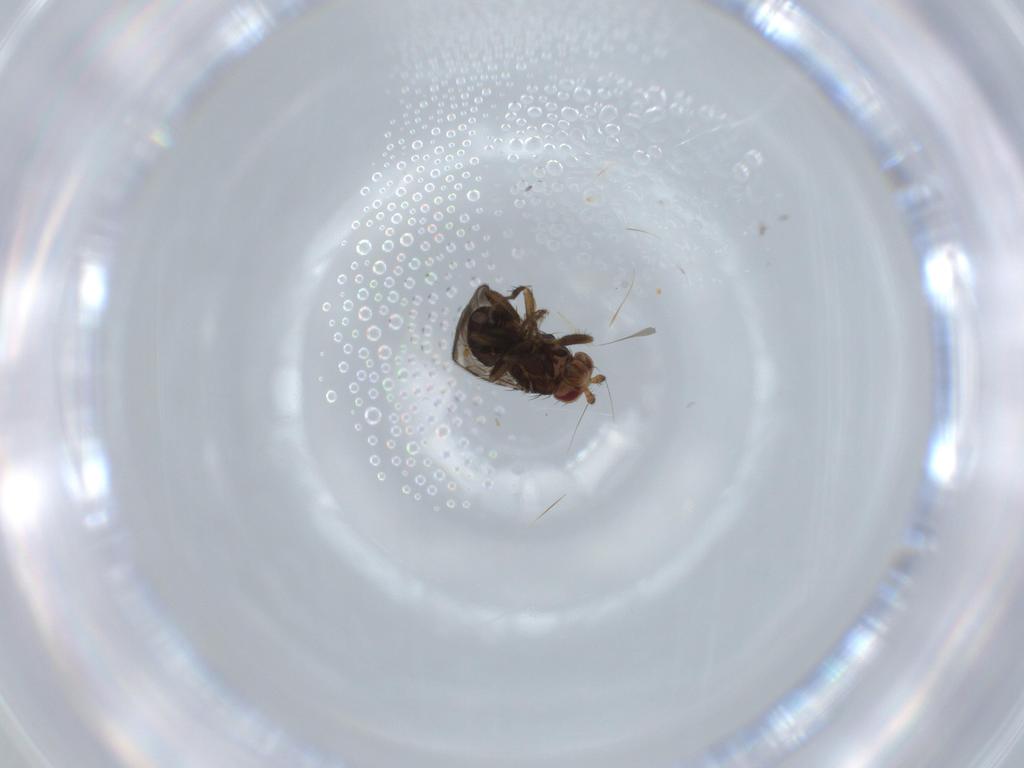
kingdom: Animalia
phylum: Arthropoda
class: Insecta
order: Diptera
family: Sphaeroceridae
